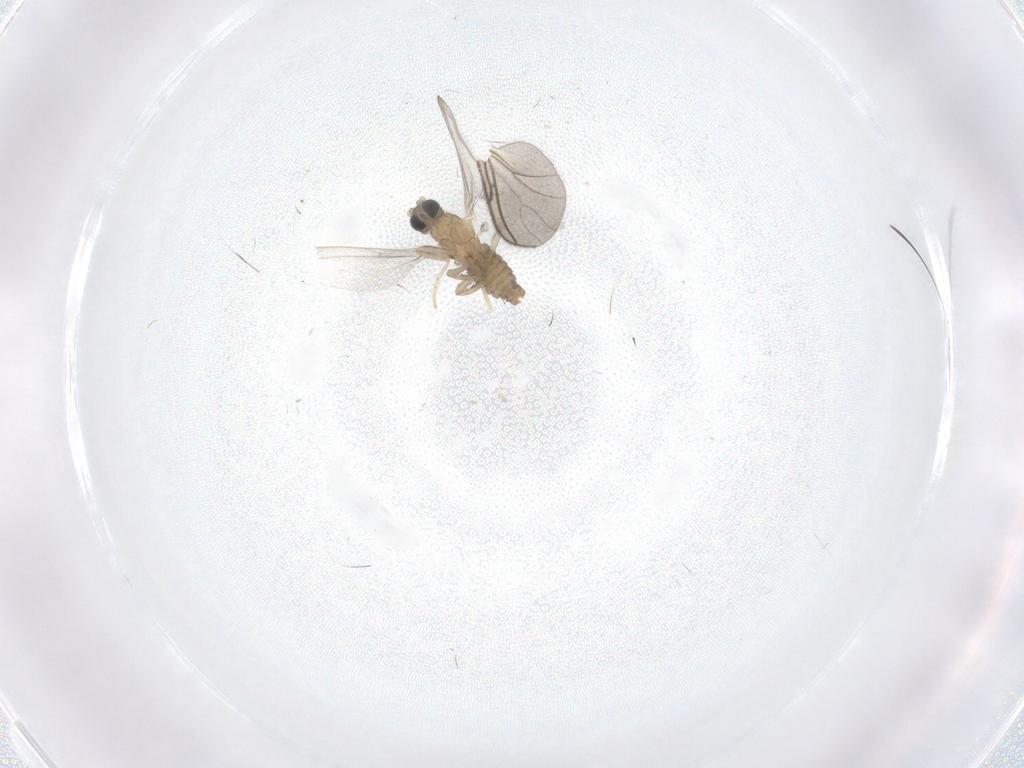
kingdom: Animalia
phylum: Arthropoda
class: Insecta
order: Diptera
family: Cecidomyiidae
